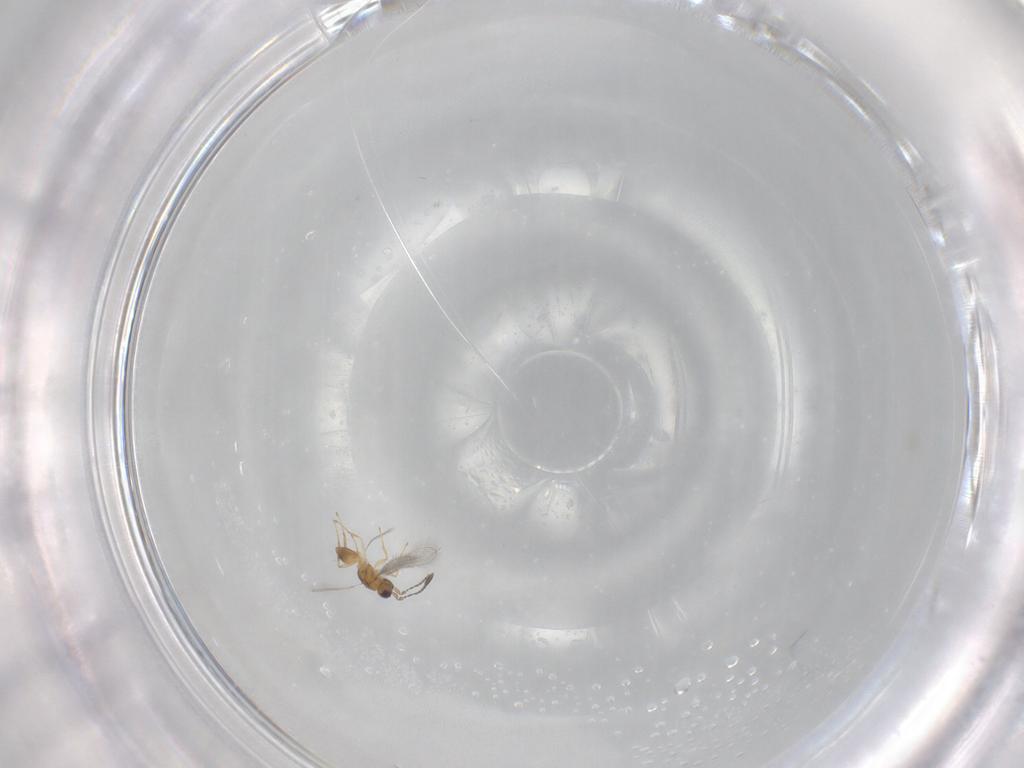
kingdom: Animalia
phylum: Arthropoda
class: Insecta
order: Hymenoptera
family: Mymaridae
